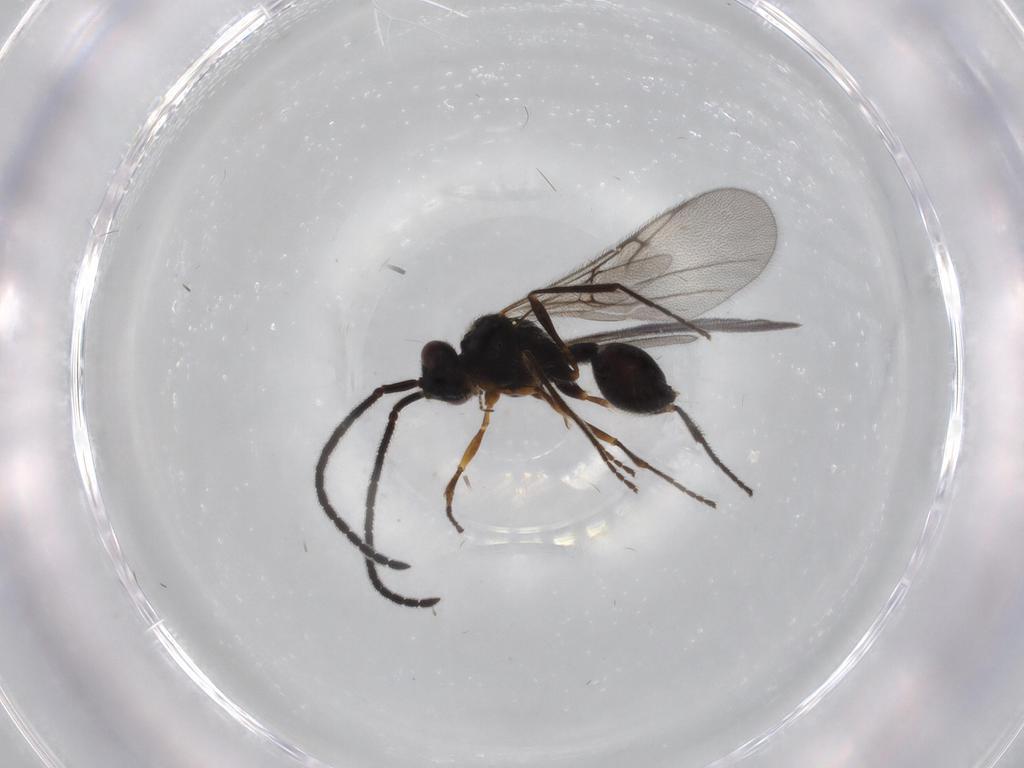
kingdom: Animalia
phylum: Arthropoda
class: Insecta
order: Hymenoptera
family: Diapriidae
